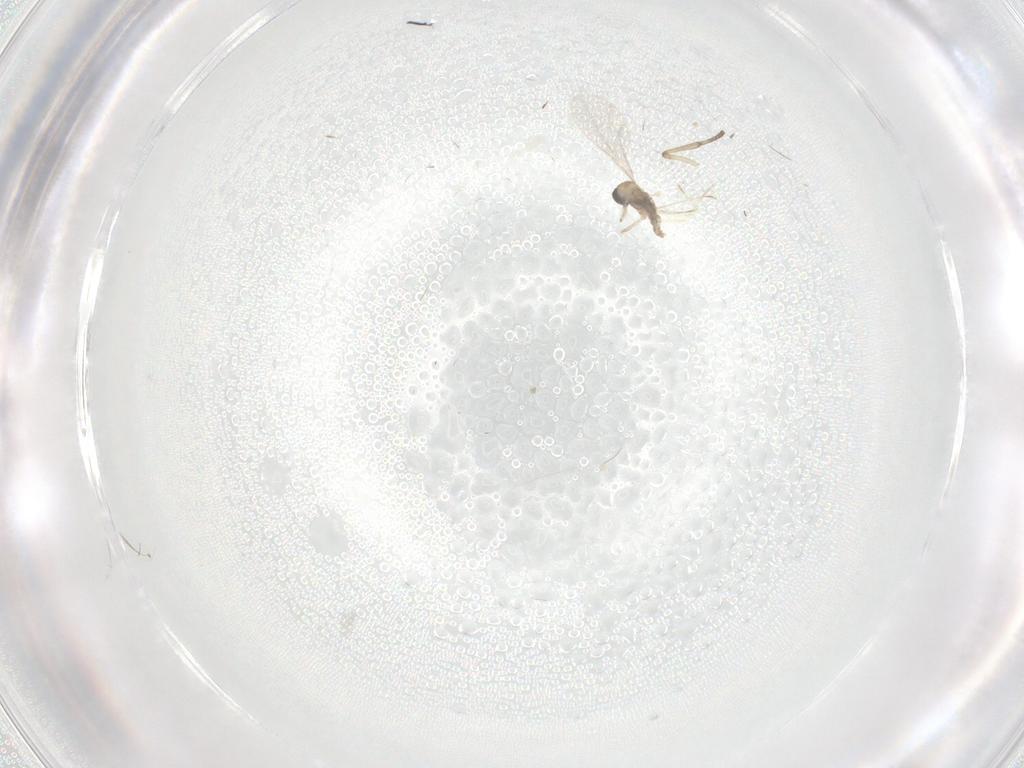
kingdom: Animalia
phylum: Arthropoda
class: Insecta
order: Diptera
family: Cecidomyiidae
